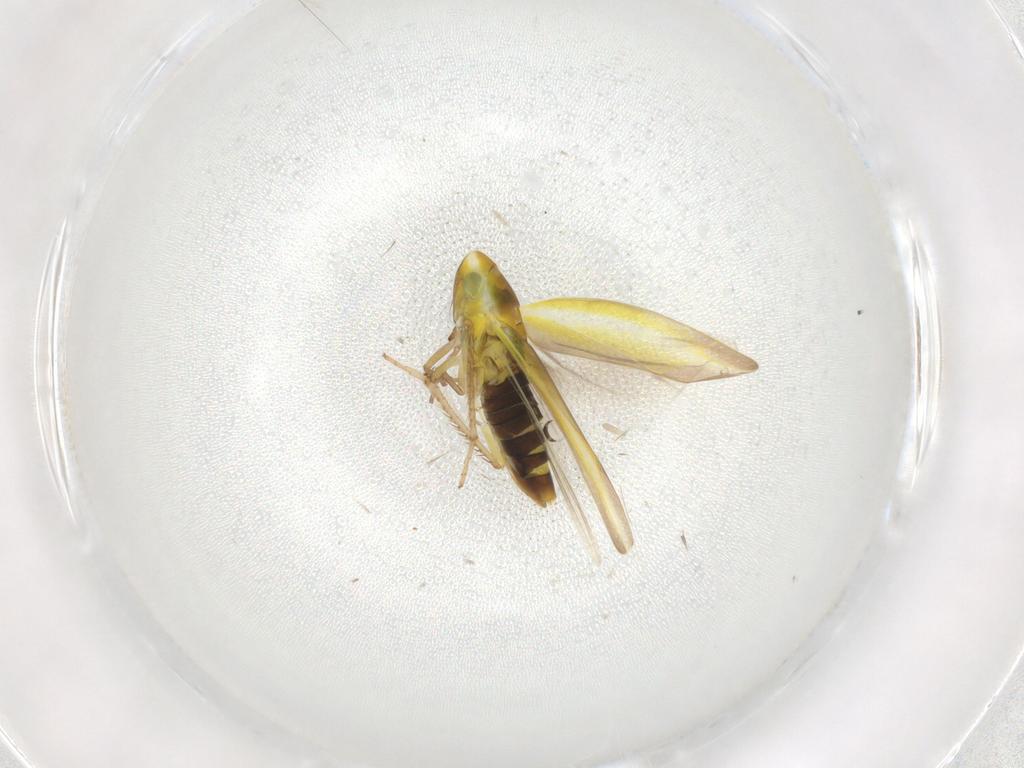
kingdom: Animalia
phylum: Arthropoda
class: Insecta
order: Hemiptera
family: Cicadellidae
